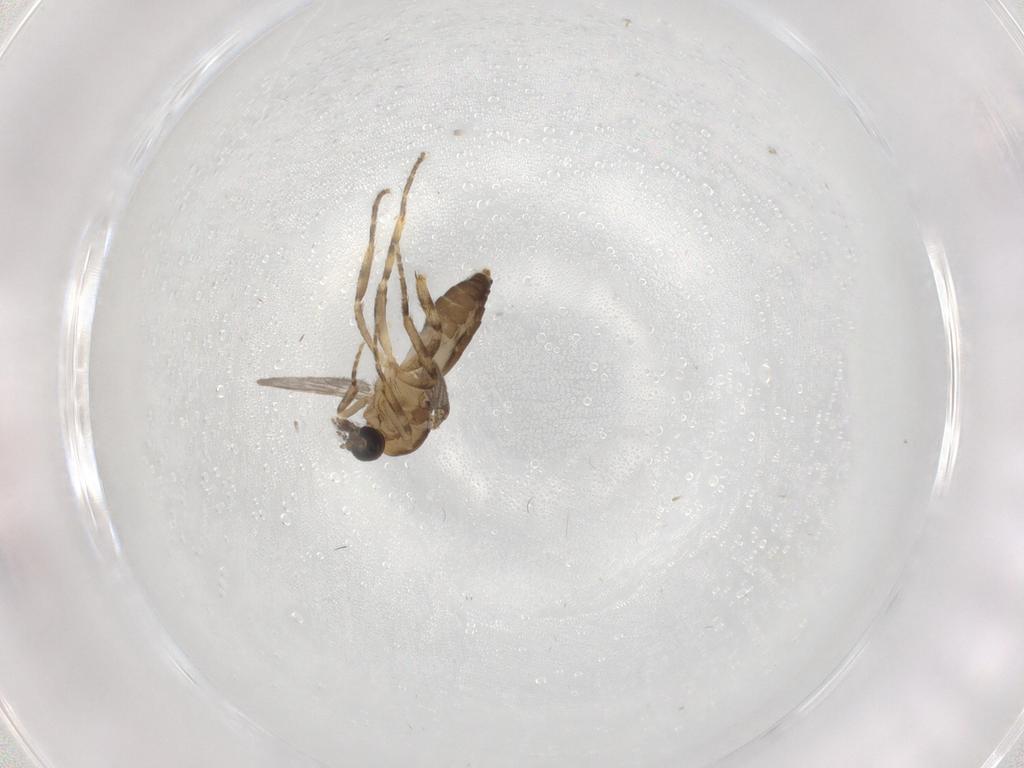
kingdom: Animalia
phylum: Arthropoda
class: Insecta
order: Diptera
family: Ceratopogonidae
